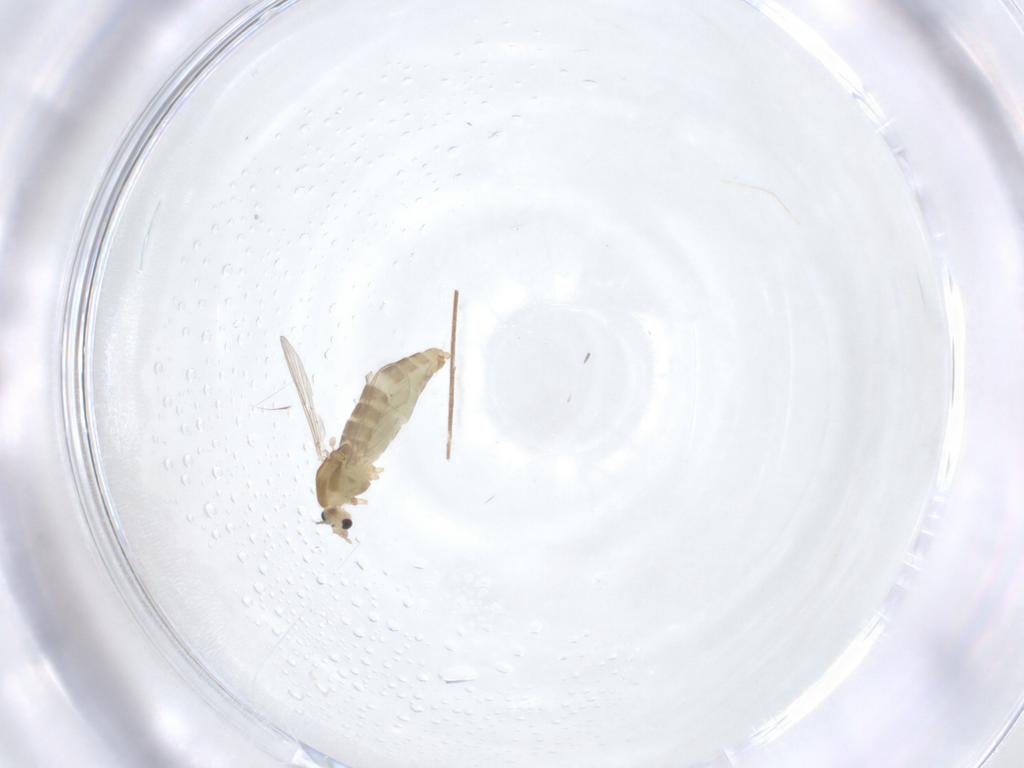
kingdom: Animalia
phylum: Arthropoda
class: Insecta
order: Diptera
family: Chironomidae
